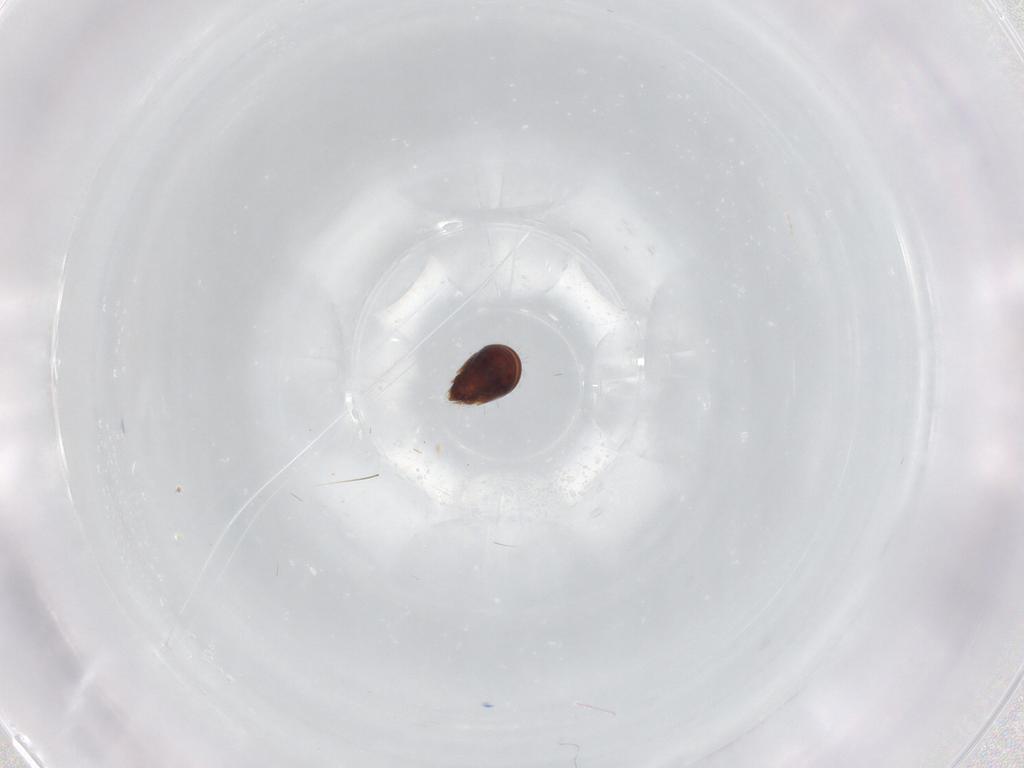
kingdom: Animalia
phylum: Arthropoda
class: Arachnida
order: Sarcoptiformes
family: Humerobatidae
